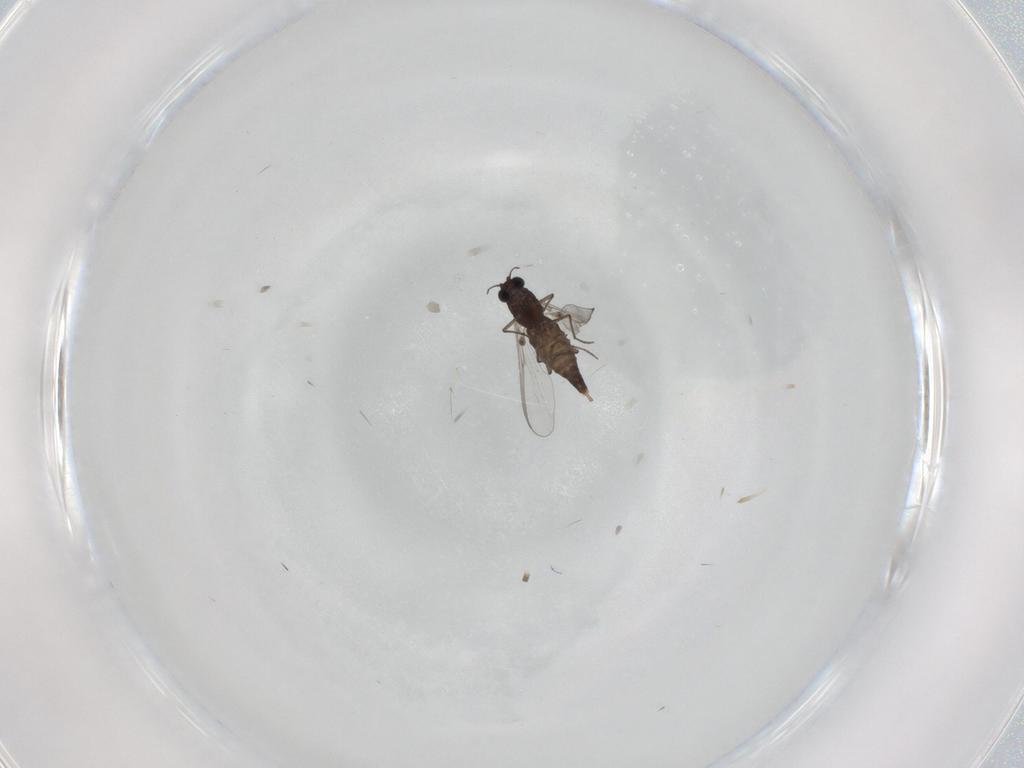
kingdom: Animalia
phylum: Arthropoda
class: Insecta
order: Diptera
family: Chironomidae
